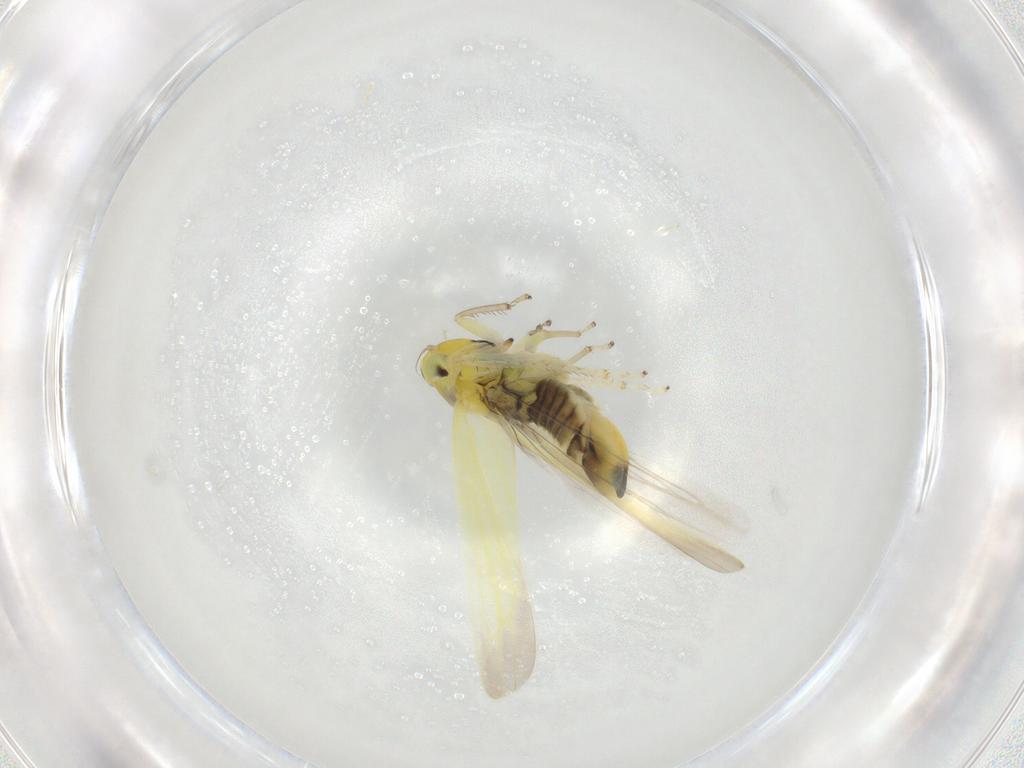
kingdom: Animalia
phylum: Arthropoda
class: Insecta
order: Hemiptera
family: Cicadellidae
